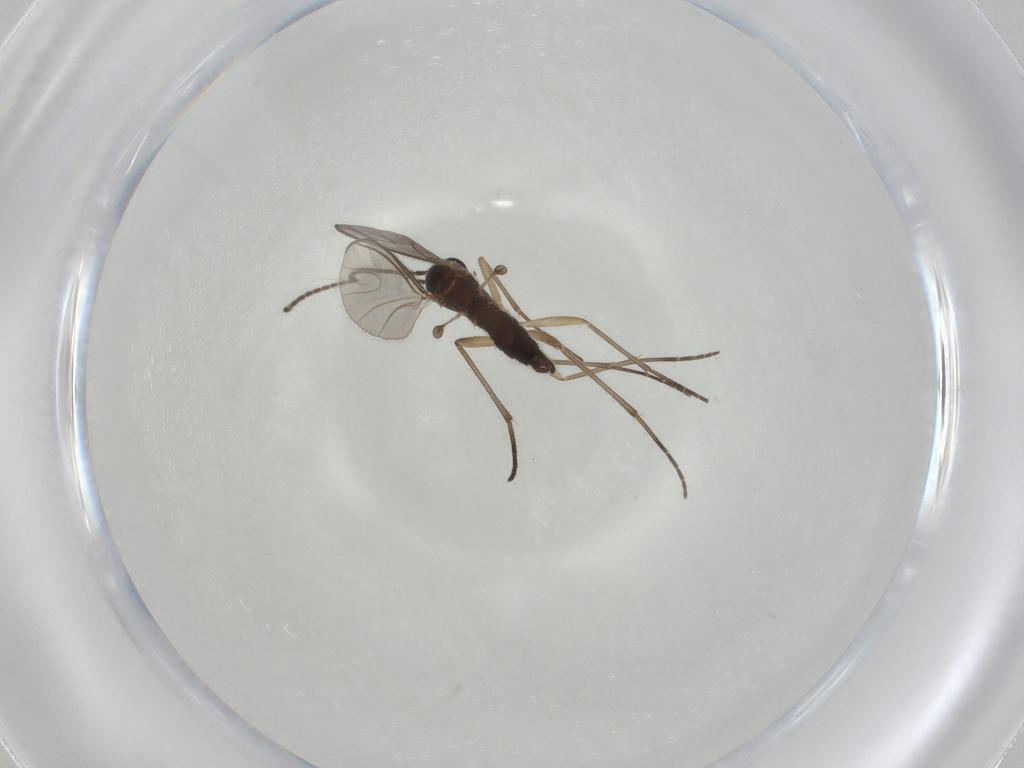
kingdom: Animalia
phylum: Arthropoda
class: Insecta
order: Diptera
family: Sciaridae
